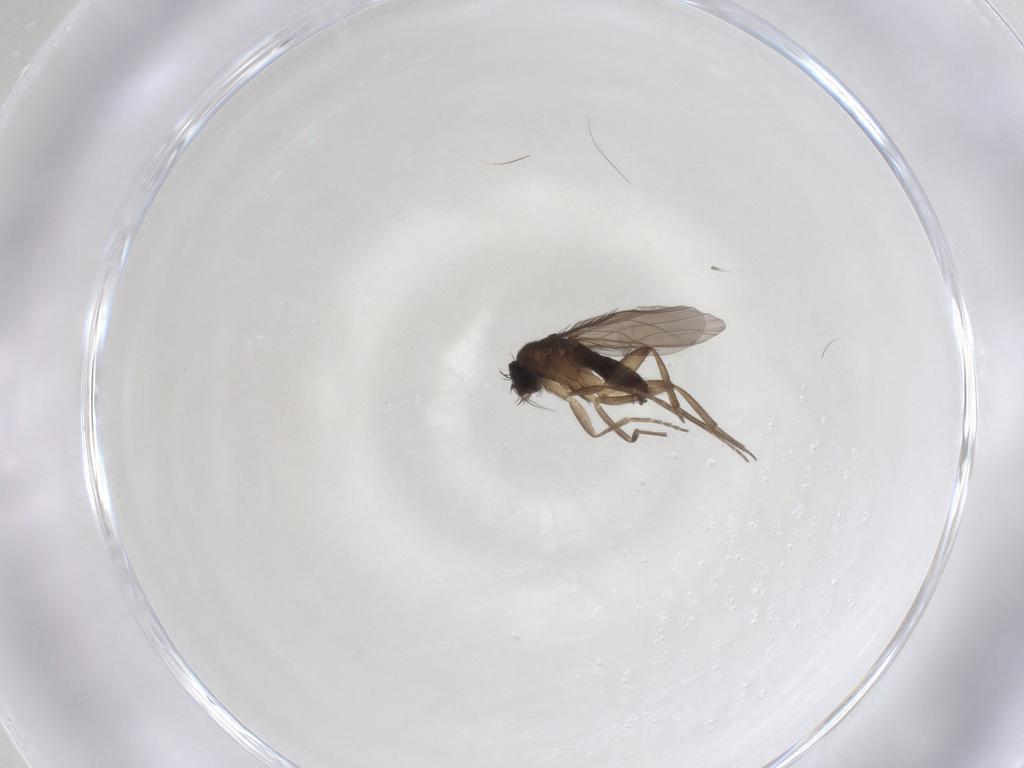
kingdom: Animalia
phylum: Arthropoda
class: Insecta
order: Diptera
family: Phoridae
